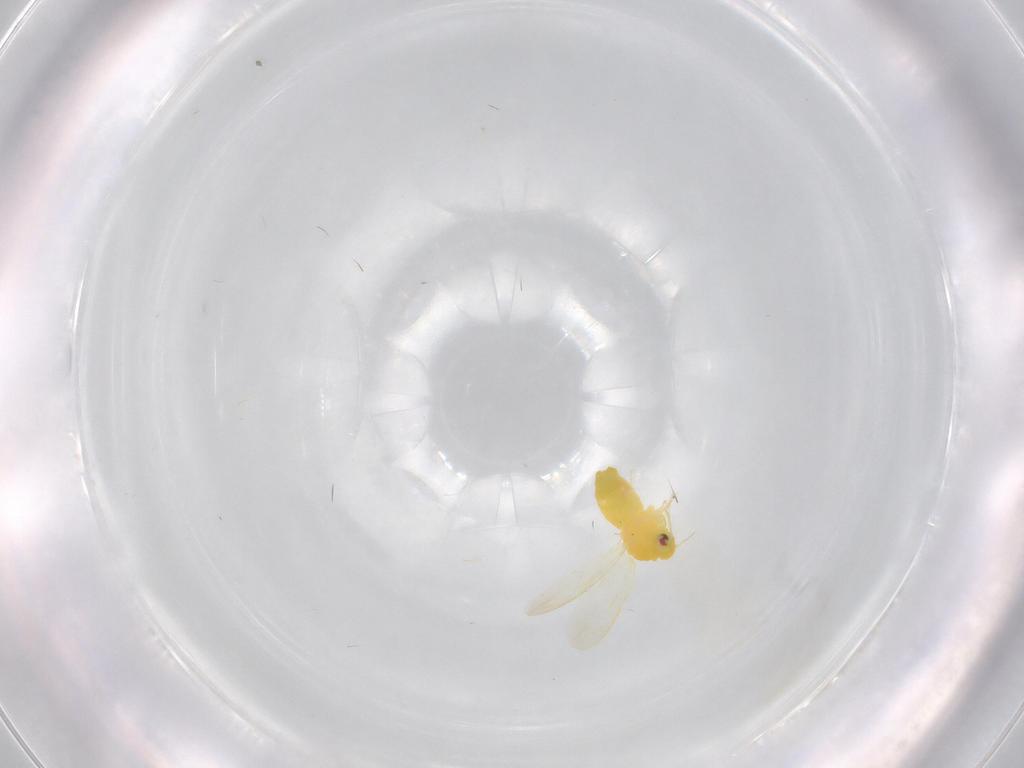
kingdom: Animalia
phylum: Arthropoda
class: Insecta
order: Hemiptera
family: Aleyrodidae
